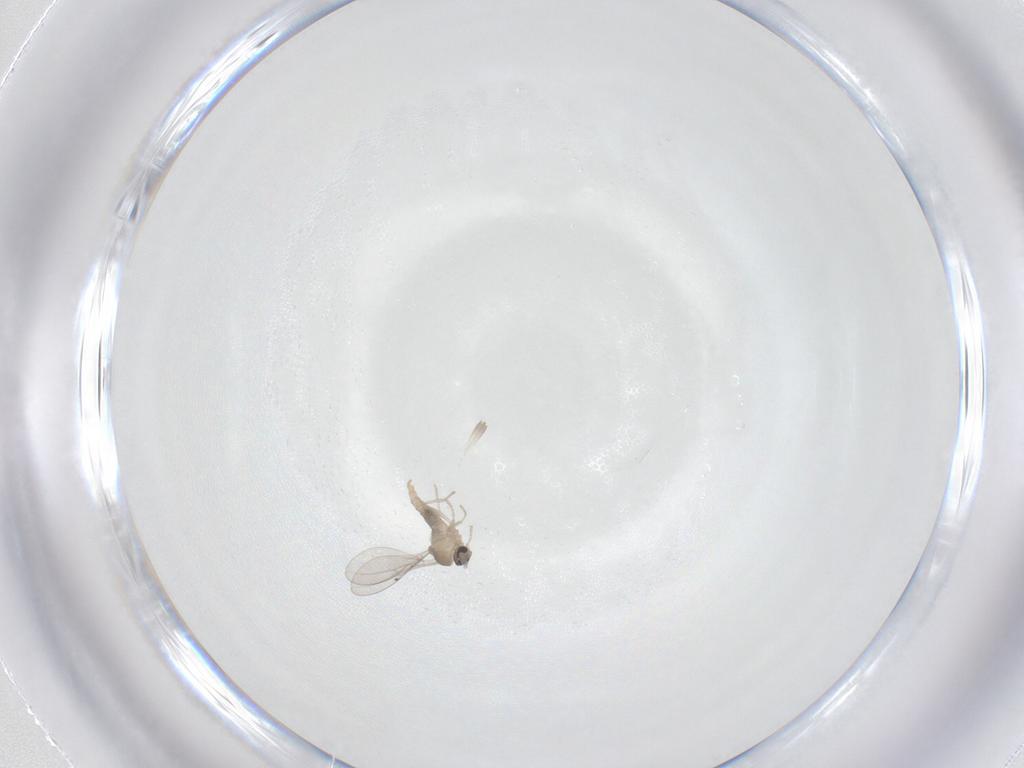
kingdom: Animalia
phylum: Arthropoda
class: Insecta
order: Diptera
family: Cecidomyiidae
